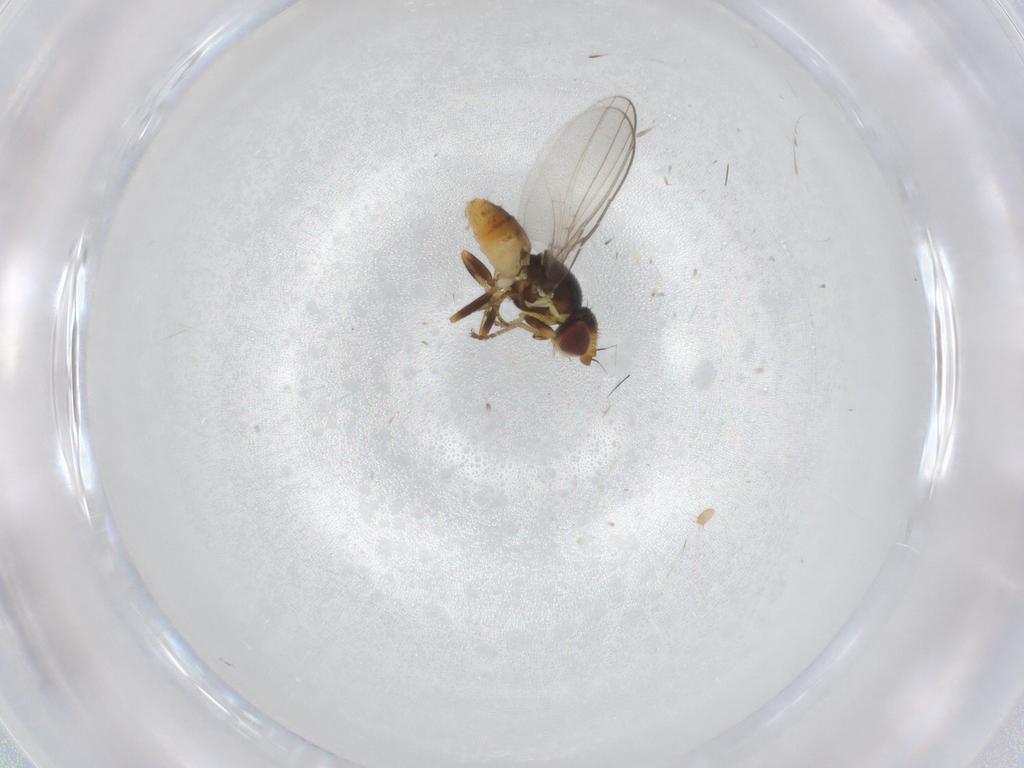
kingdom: Animalia
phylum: Arthropoda
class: Insecta
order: Diptera
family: Chloropidae
